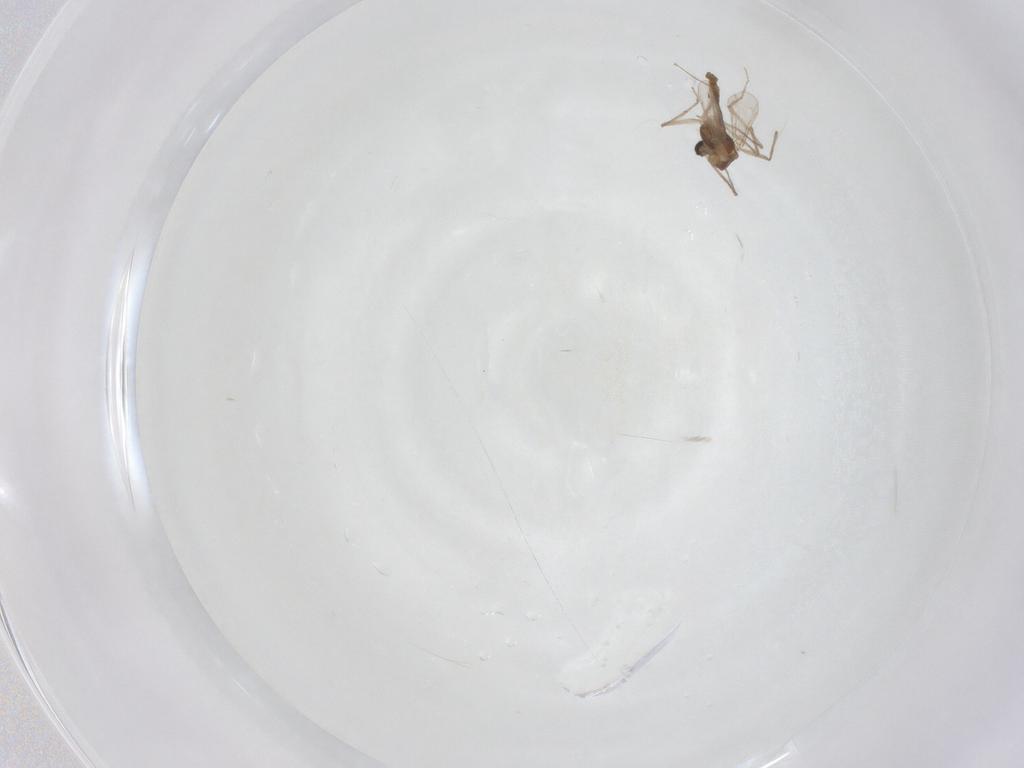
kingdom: Animalia
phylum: Arthropoda
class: Insecta
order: Diptera
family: Chironomidae
